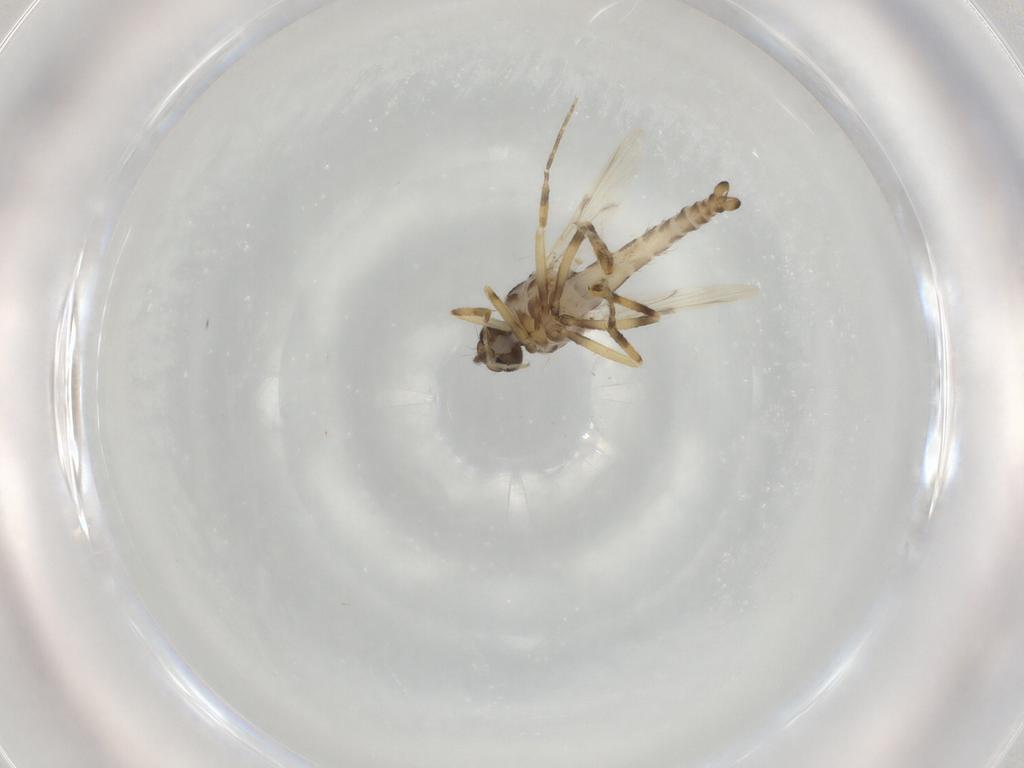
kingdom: Animalia
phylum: Arthropoda
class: Insecta
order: Diptera
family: Ceratopogonidae
